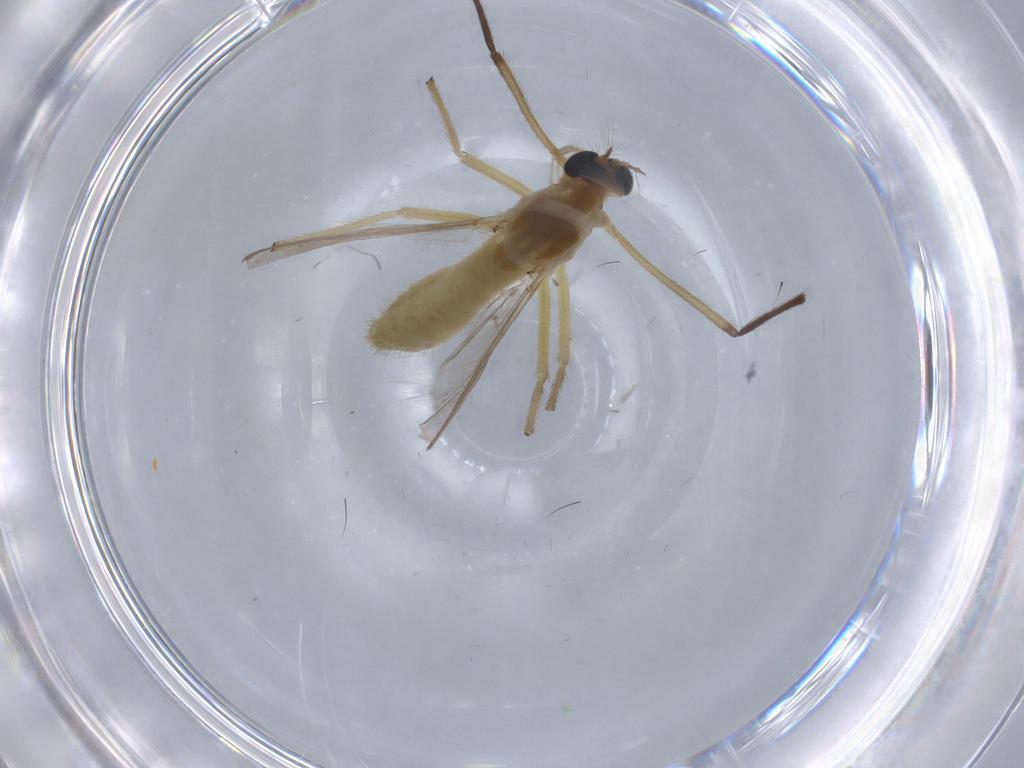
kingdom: Animalia
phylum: Arthropoda
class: Insecta
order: Diptera
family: Chironomidae
